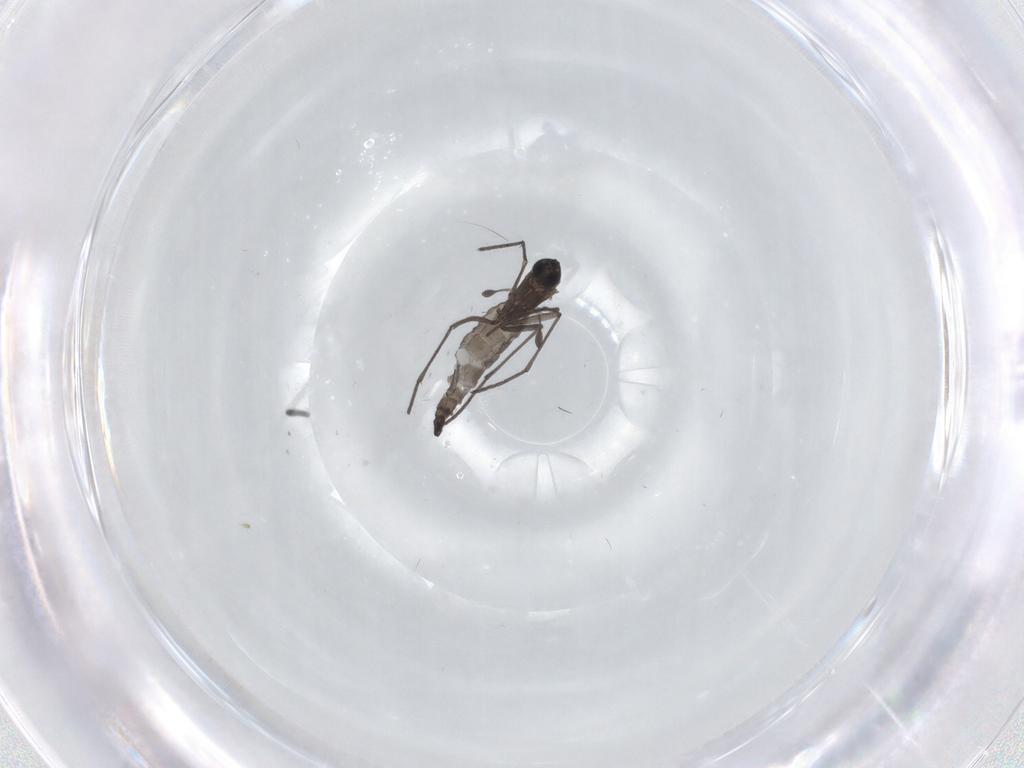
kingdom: Animalia
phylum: Arthropoda
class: Insecta
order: Diptera
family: Sciaridae
